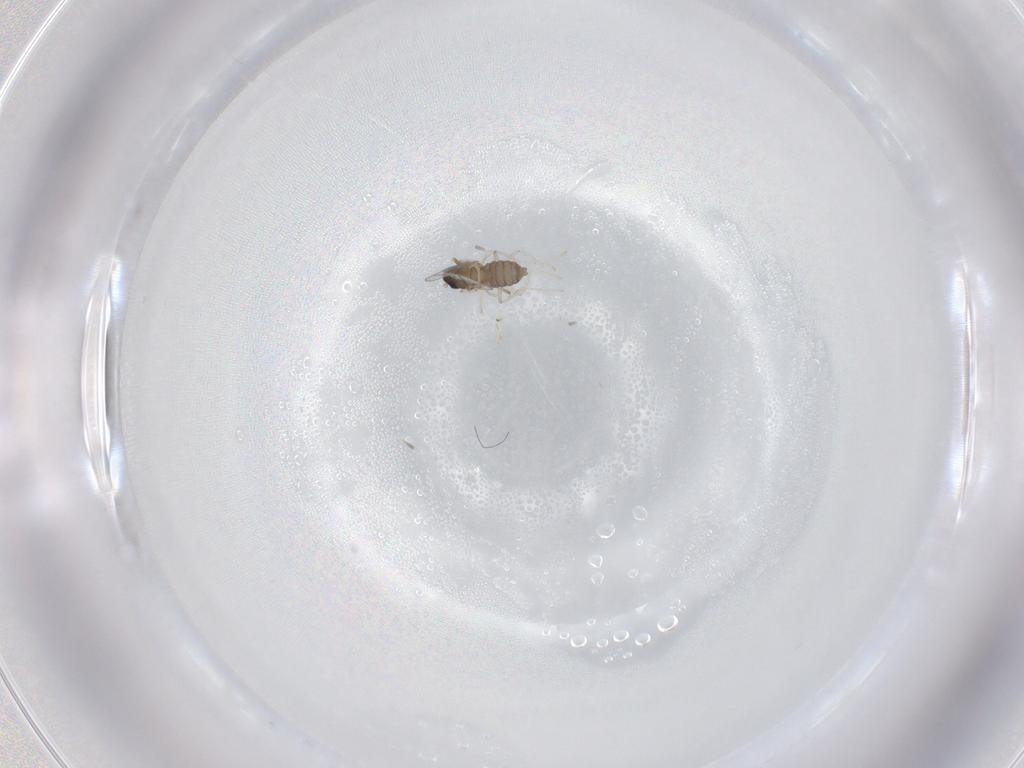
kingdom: Animalia
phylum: Arthropoda
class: Insecta
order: Diptera
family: Cecidomyiidae
